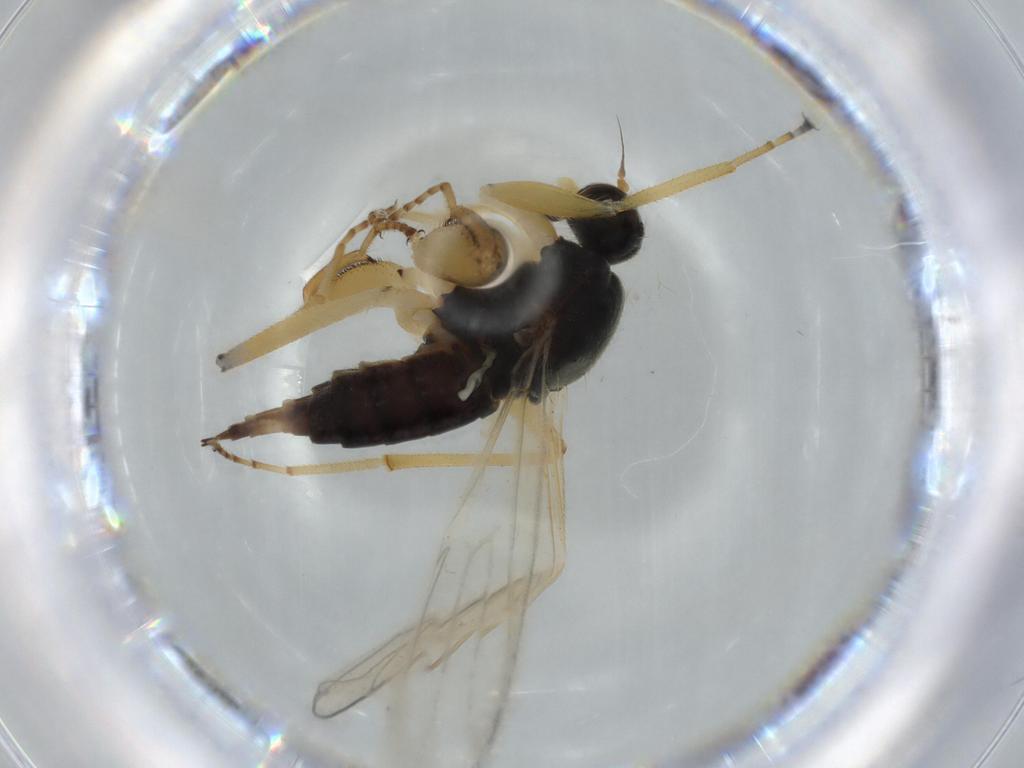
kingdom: Animalia
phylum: Arthropoda
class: Insecta
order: Diptera
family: Hybotidae
